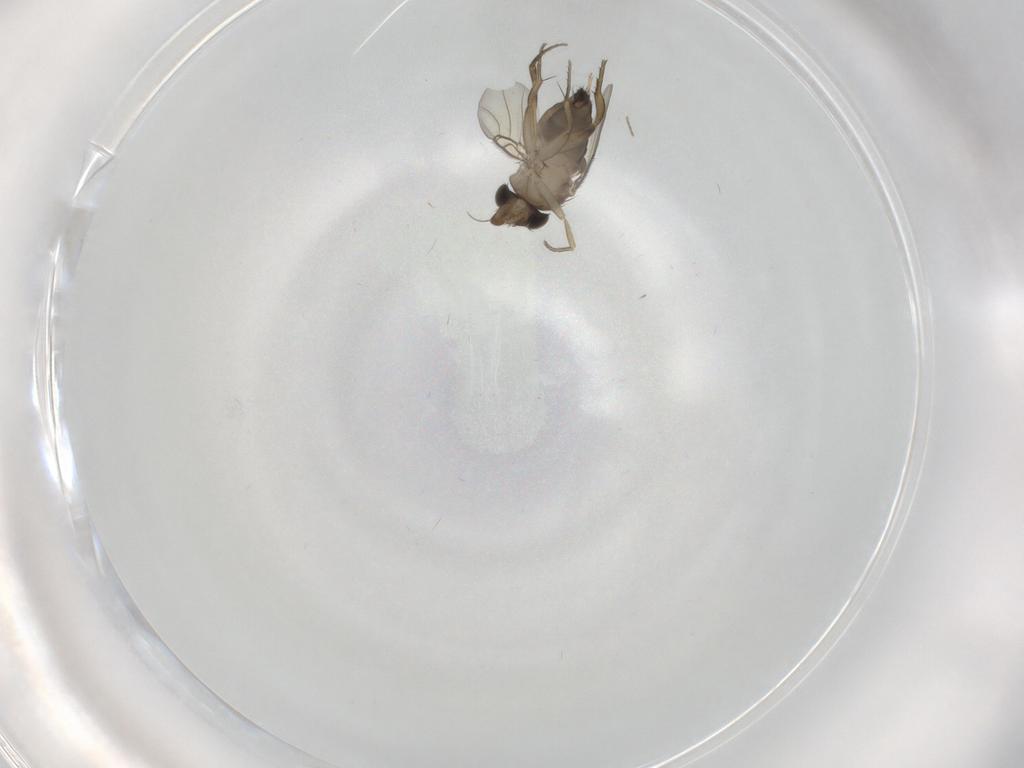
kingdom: Animalia
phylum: Arthropoda
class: Insecta
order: Diptera
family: Phoridae
